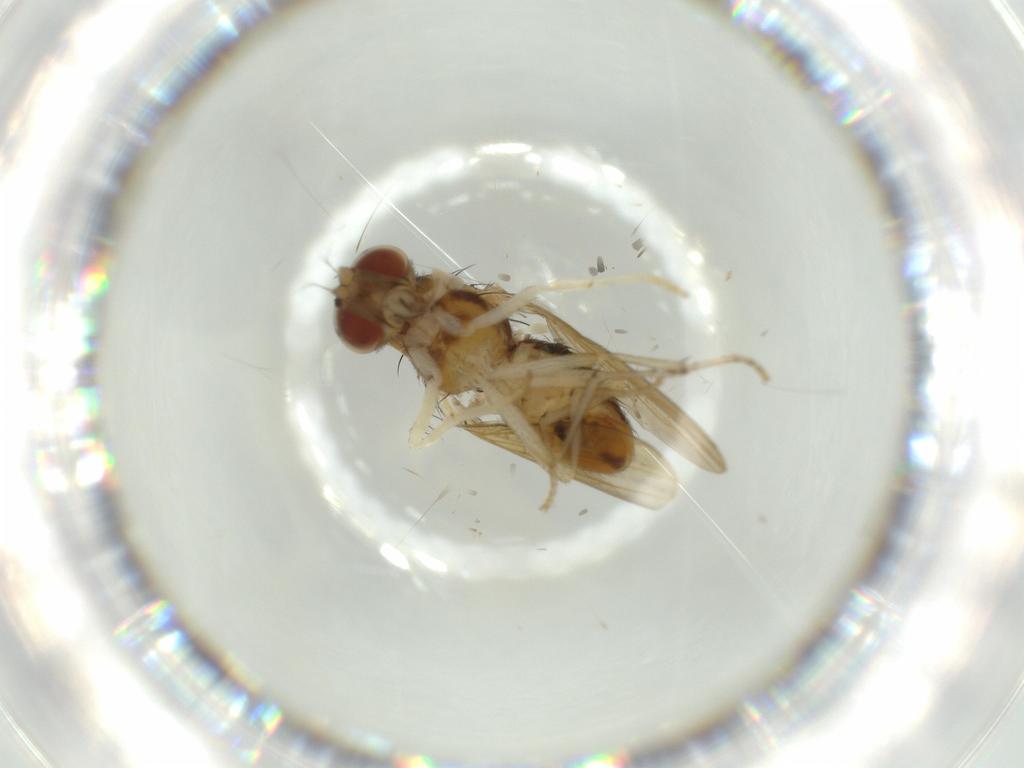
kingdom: Animalia
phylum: Arthropoda
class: Insecta
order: Diptera
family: Sciaridae
